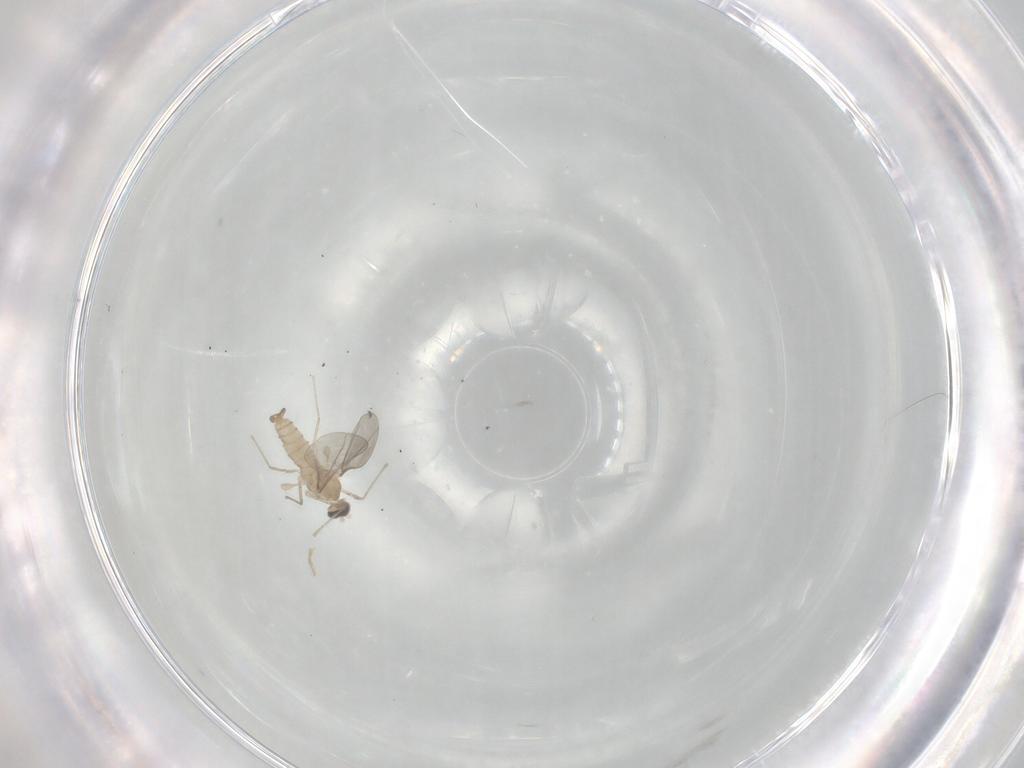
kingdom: Animalia
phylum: Arthropoda
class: Insecta
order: Diptera
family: Cecidomyiidae
